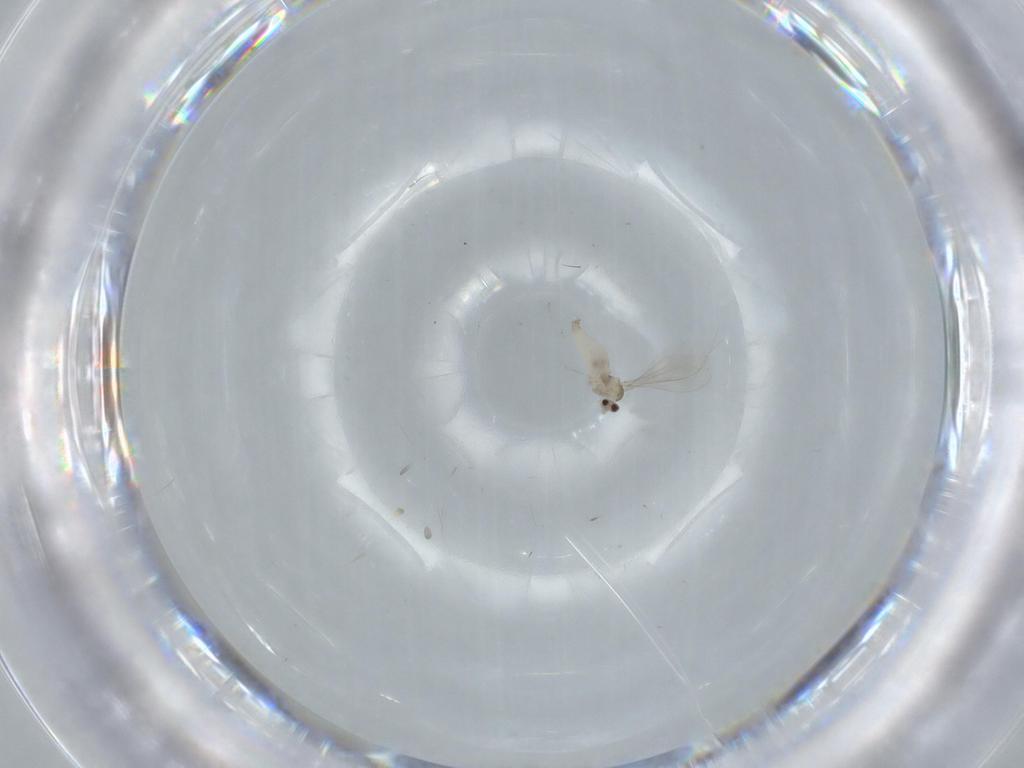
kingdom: Animalia
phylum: Arthropoda
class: Insecta
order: Diptera
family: Cecidomyiidae
